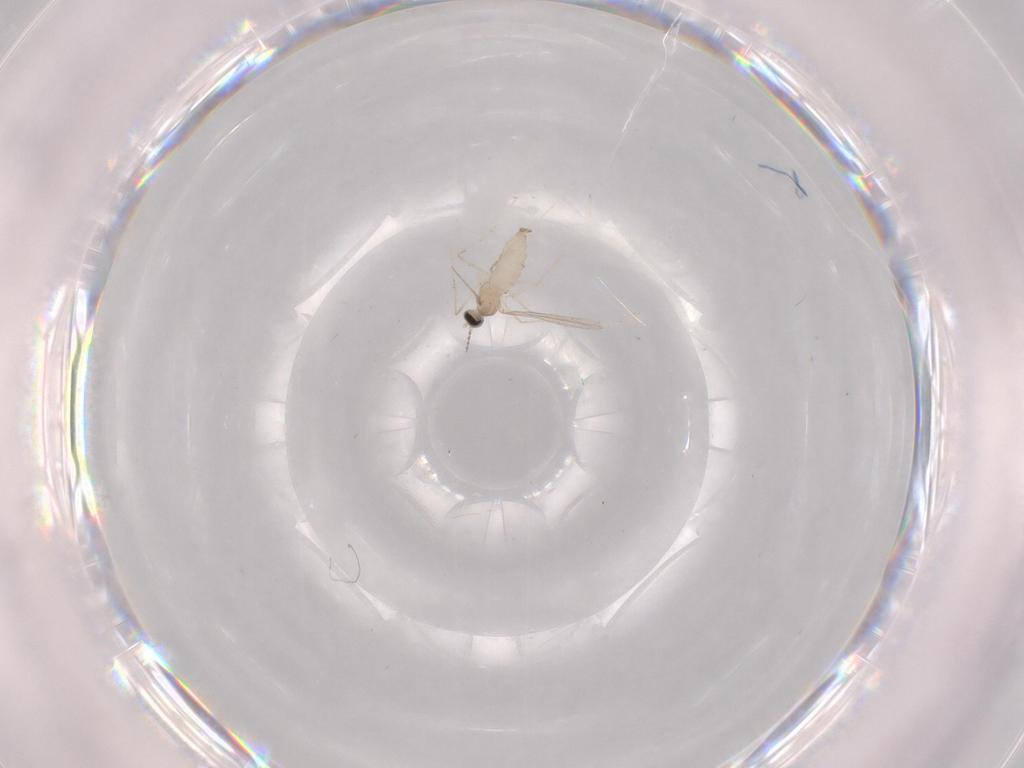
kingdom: Animalia
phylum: Arthropoda
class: Insecta
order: Diptera
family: Cecidomyiidae
